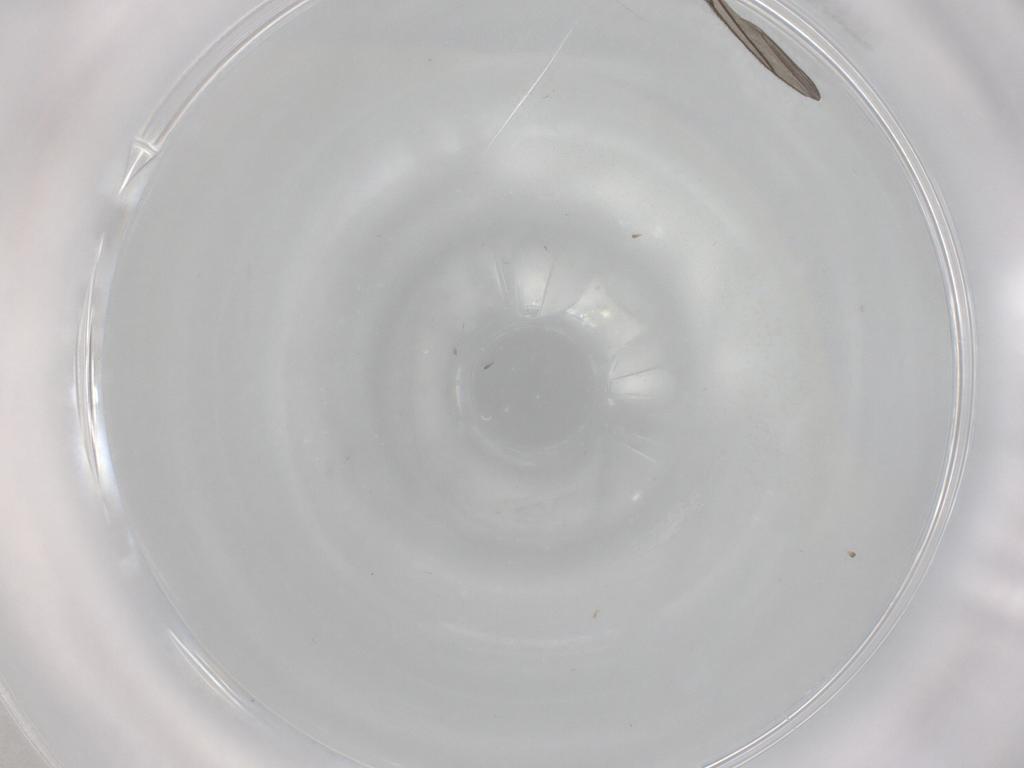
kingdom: Animalia
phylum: Arthropoda
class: Insecta
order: Diptera
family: Sciaridae
